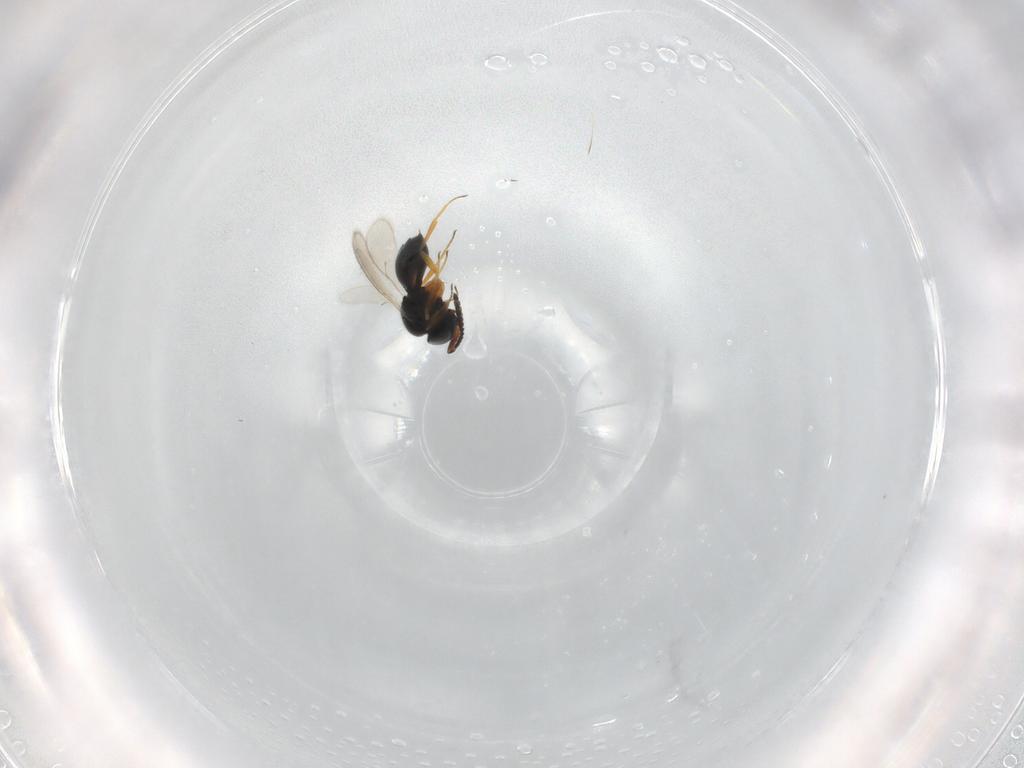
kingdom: Animalia
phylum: Arthropoda
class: Insecta
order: Hymenoptera
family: Scelionidae
